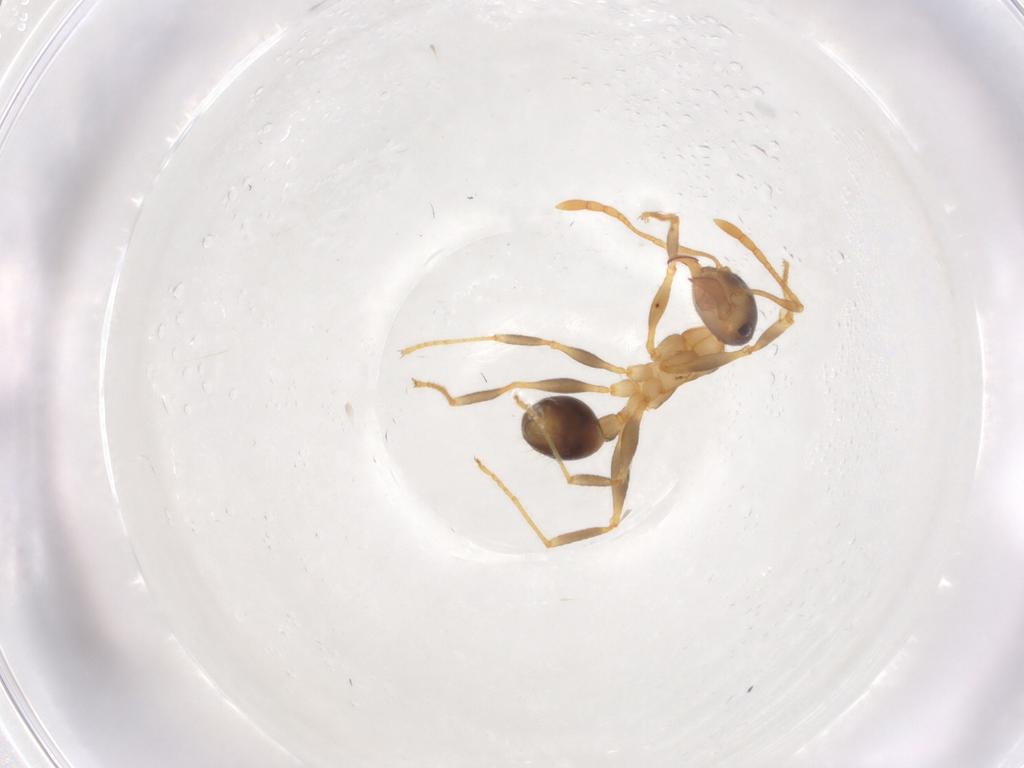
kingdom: Animalia
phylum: Arthropoda
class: Insecta
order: Hymenoptera
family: Formicidae
